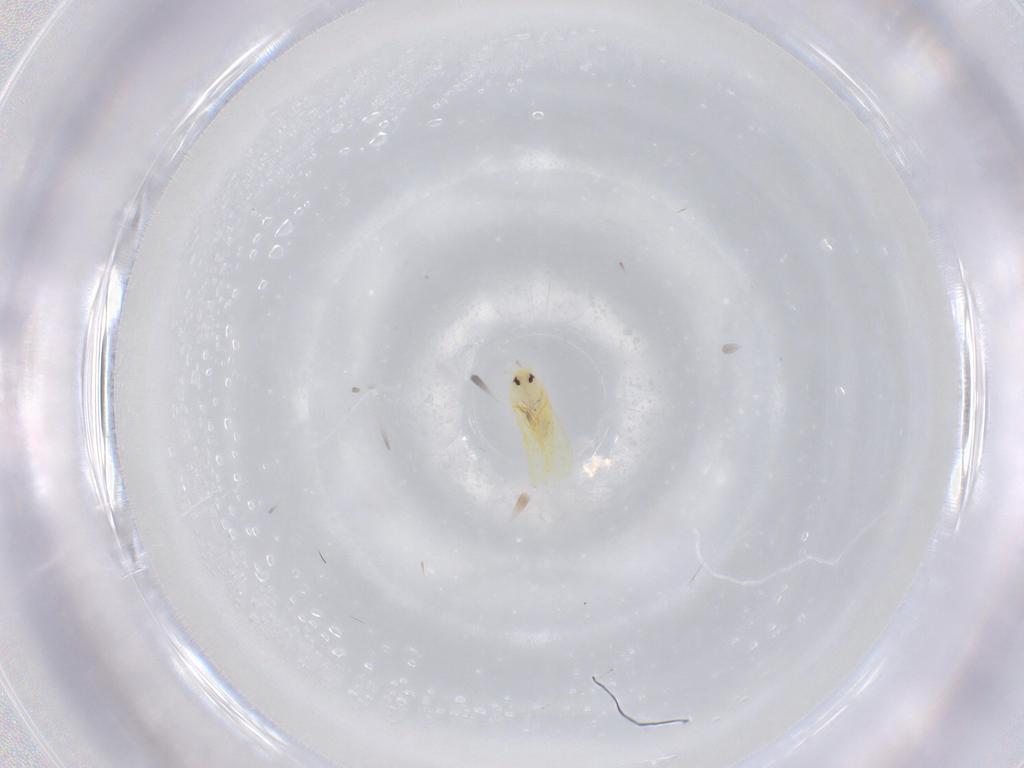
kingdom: Animalia
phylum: Arthropoda
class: Insecta
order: Hemiptera
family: Aleyrodidae
